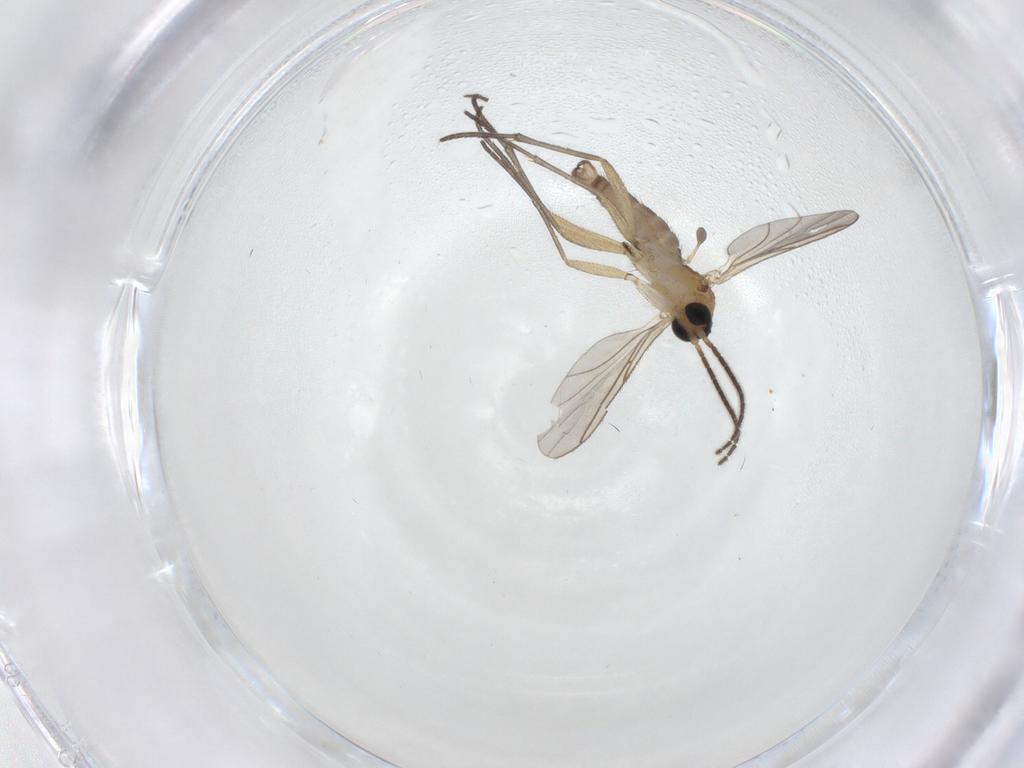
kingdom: Animalia
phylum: Arthropoda
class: Insecta
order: Diptera
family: Sciaridae
